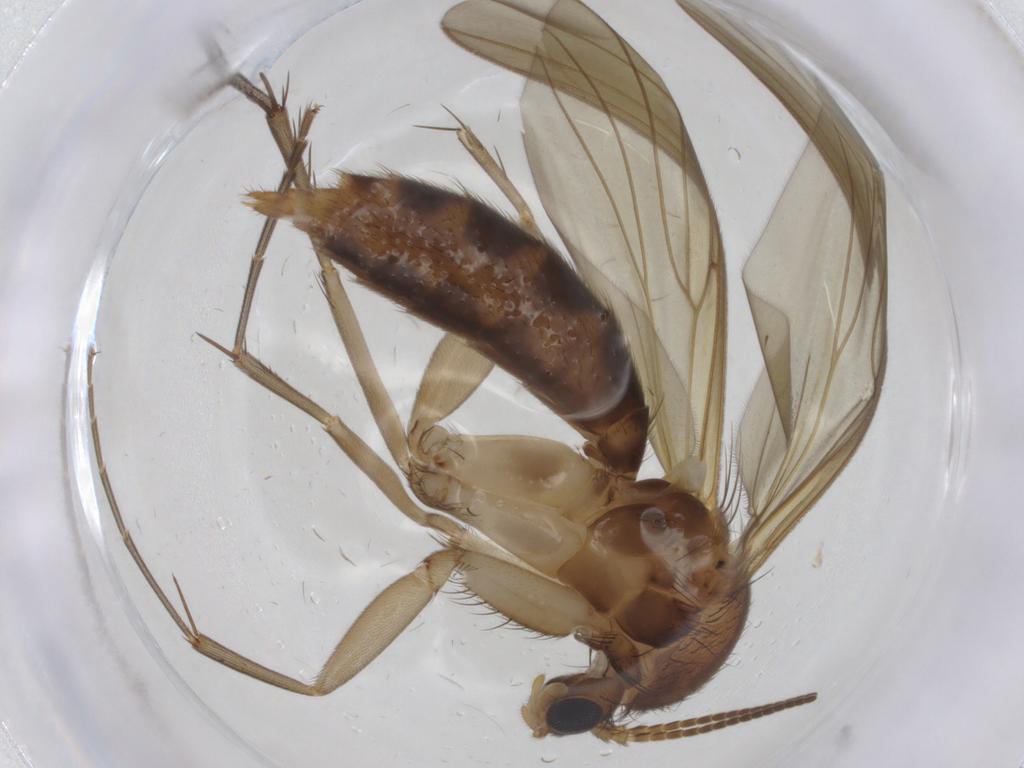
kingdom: Animalia
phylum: Arthropoda
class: Insecta
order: Diptera
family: Mycetophilidae
